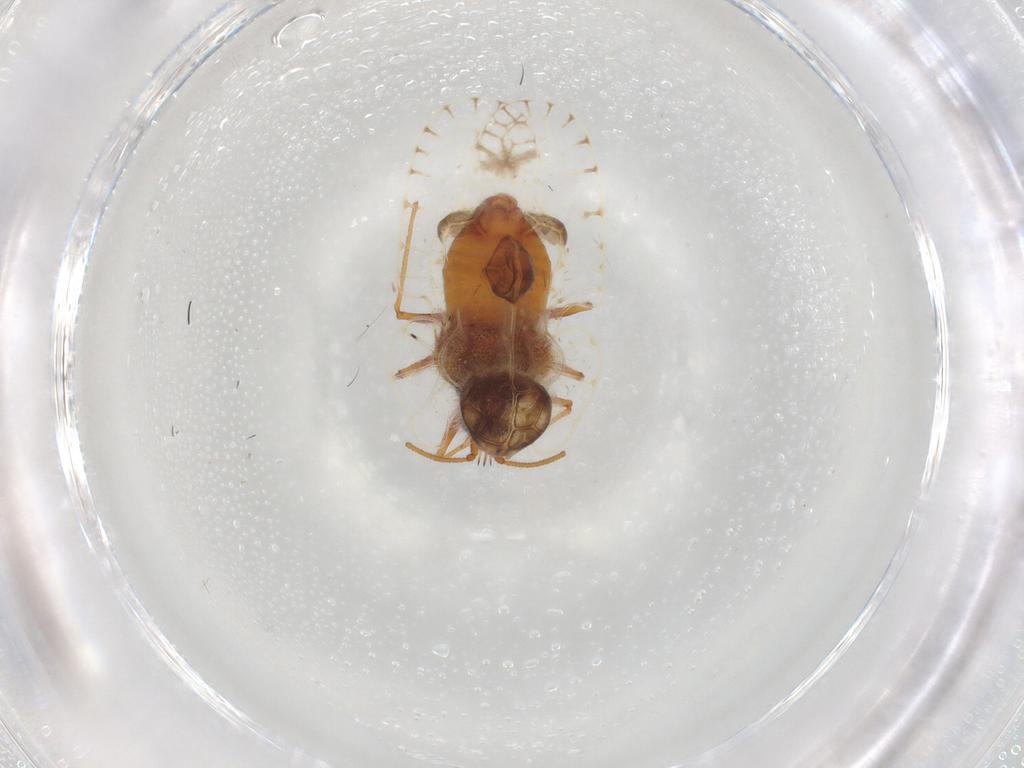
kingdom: Animalia
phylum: Arthropoda
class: Insecta
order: Hemiptera
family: Tingidae
